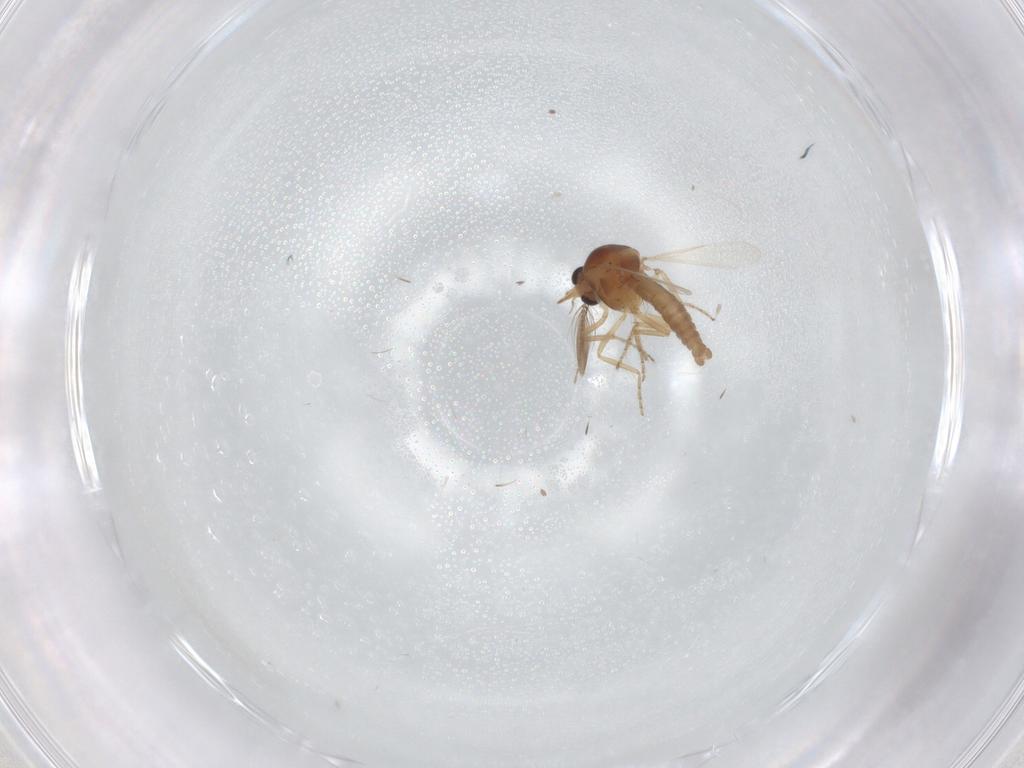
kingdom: Animalia
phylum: Arthropoda
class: Insecta
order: Diptera
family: Ceratopogonidae
